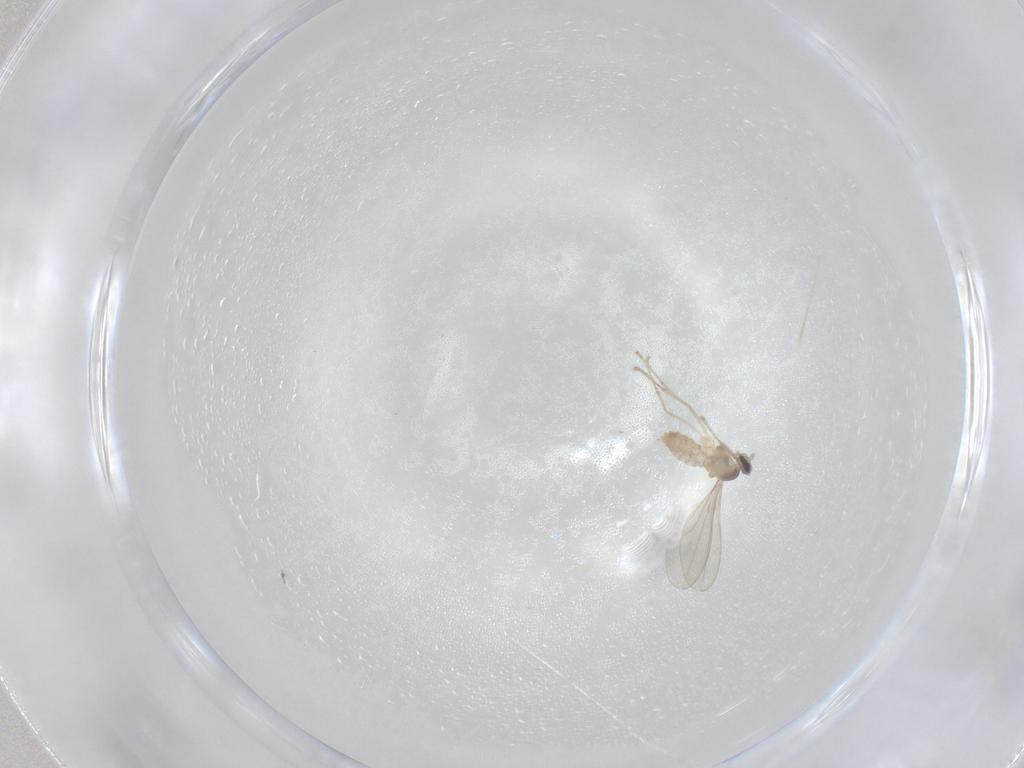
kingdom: Animalia
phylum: Arthropoda
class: Insecta
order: Diptera
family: Cecidomyiidae
